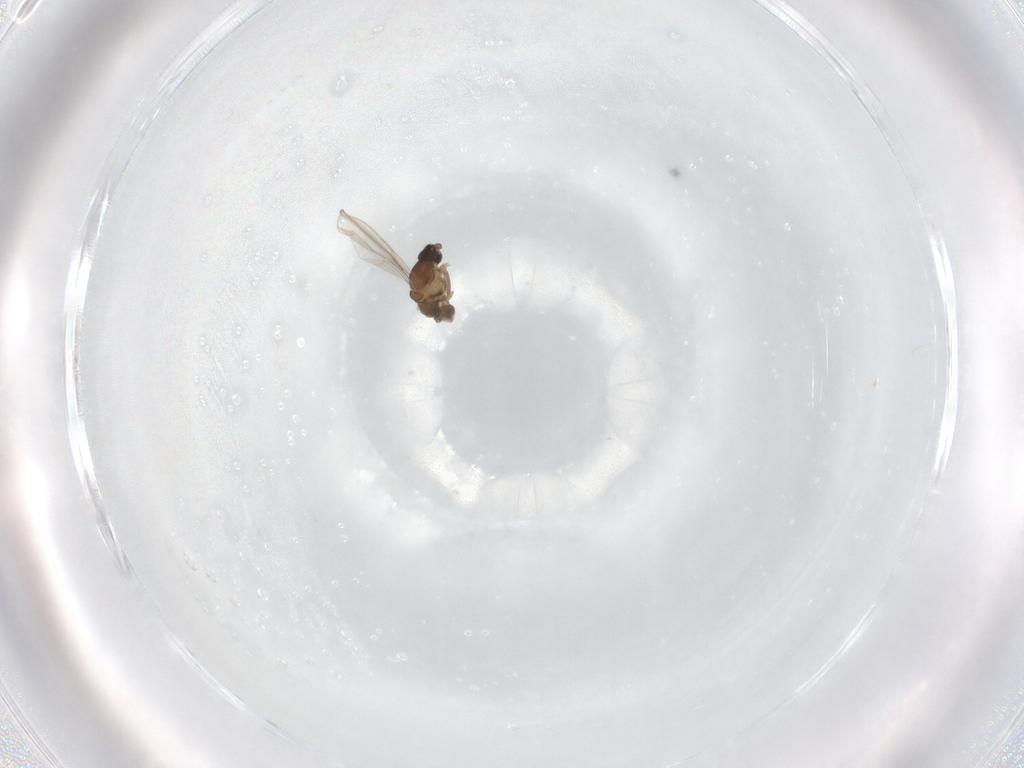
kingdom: Animalia
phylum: Arthropoda
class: Insecta
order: Diptera
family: Cecidomyiidae
